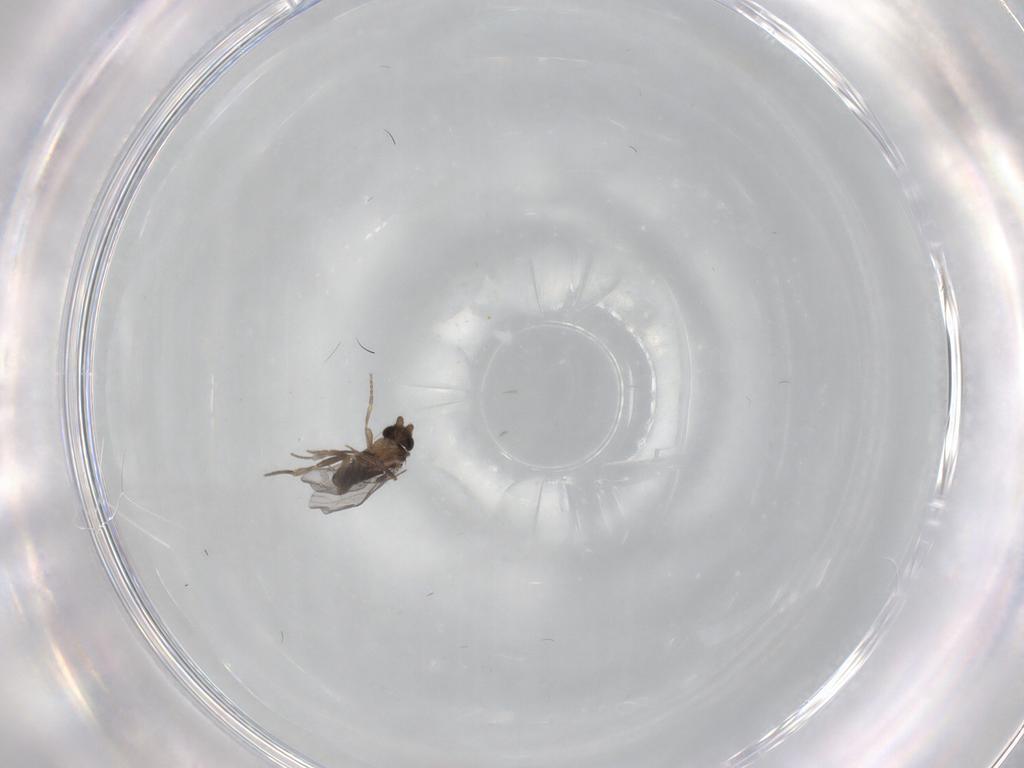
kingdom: Animalia
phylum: Arthropoda
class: Insecta
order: Diptera
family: Ceratopogonidae
